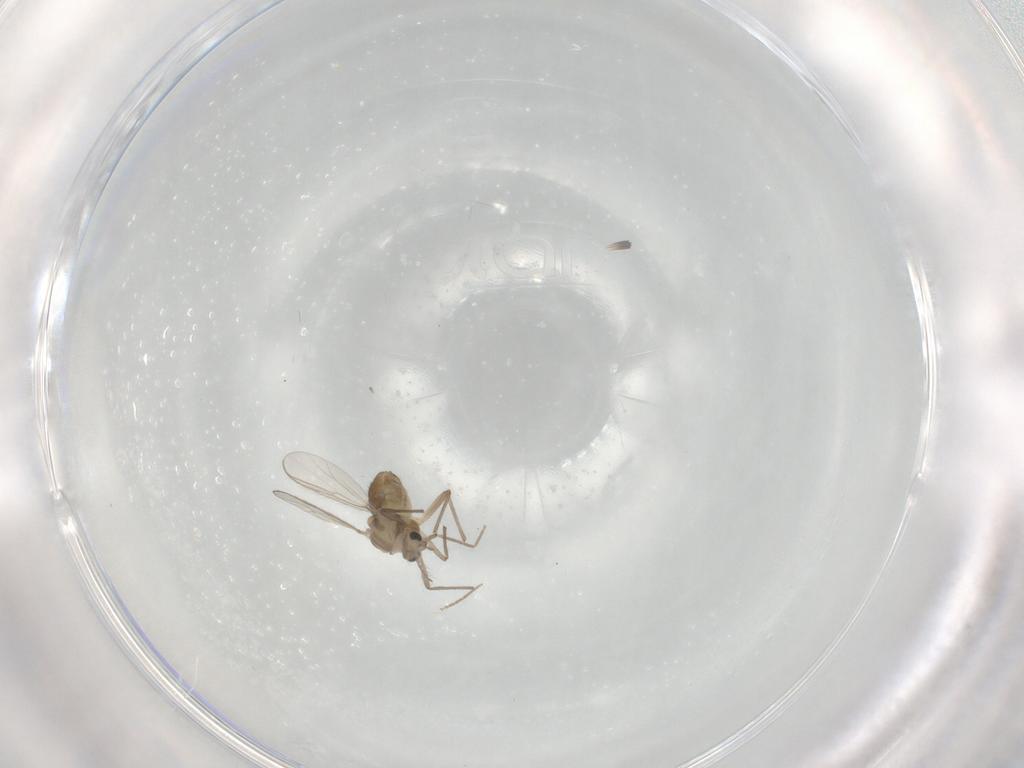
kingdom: Animalia
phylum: Arthropoda
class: Insecta
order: Diptera
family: Chironomidae
